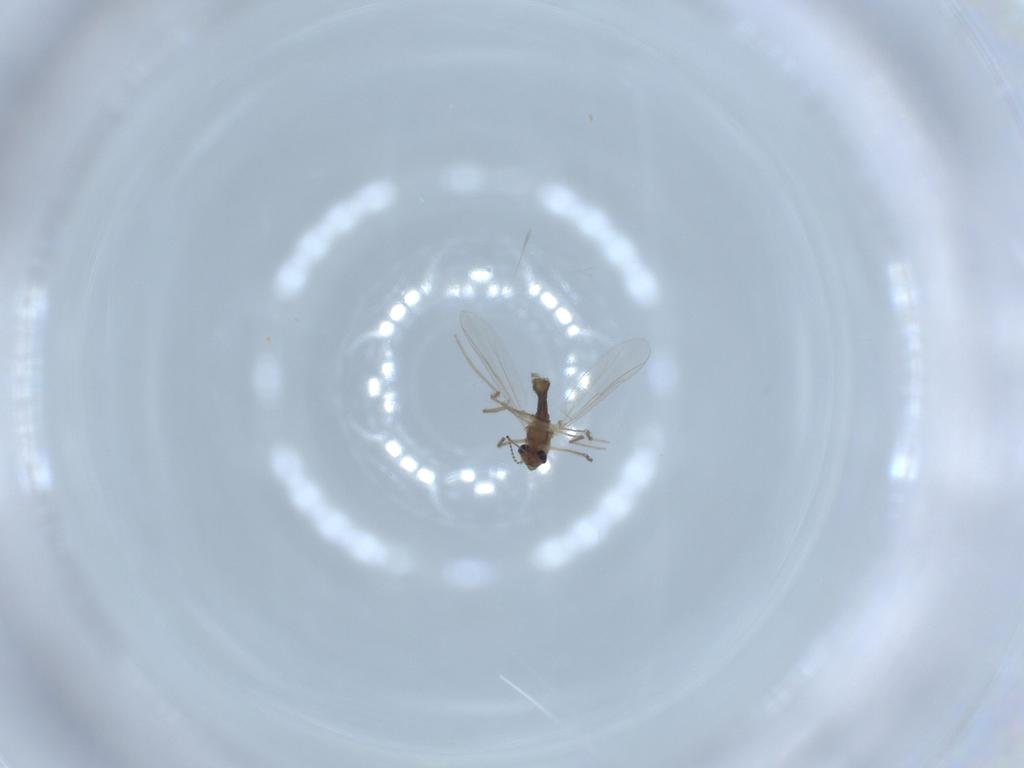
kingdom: Animalia
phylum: Arthropoda
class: Insecta
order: Diptera
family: Chironomidae
